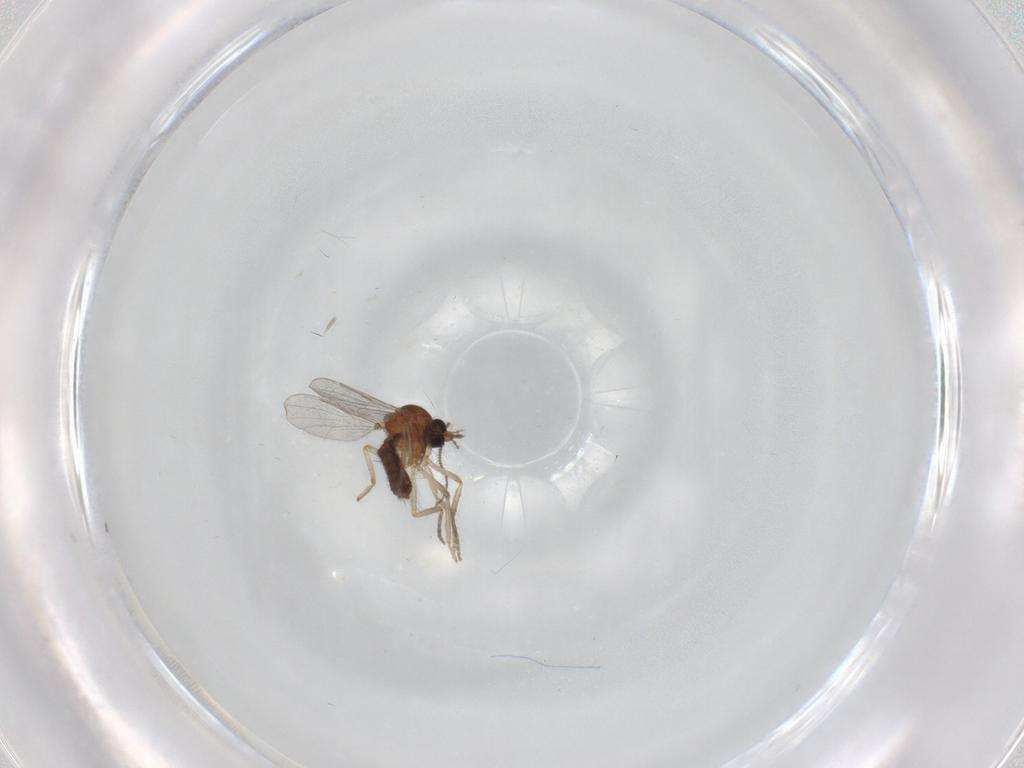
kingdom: Animalia
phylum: Arthropoda
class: Insecta
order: Diptera
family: Ceratopogonidae
